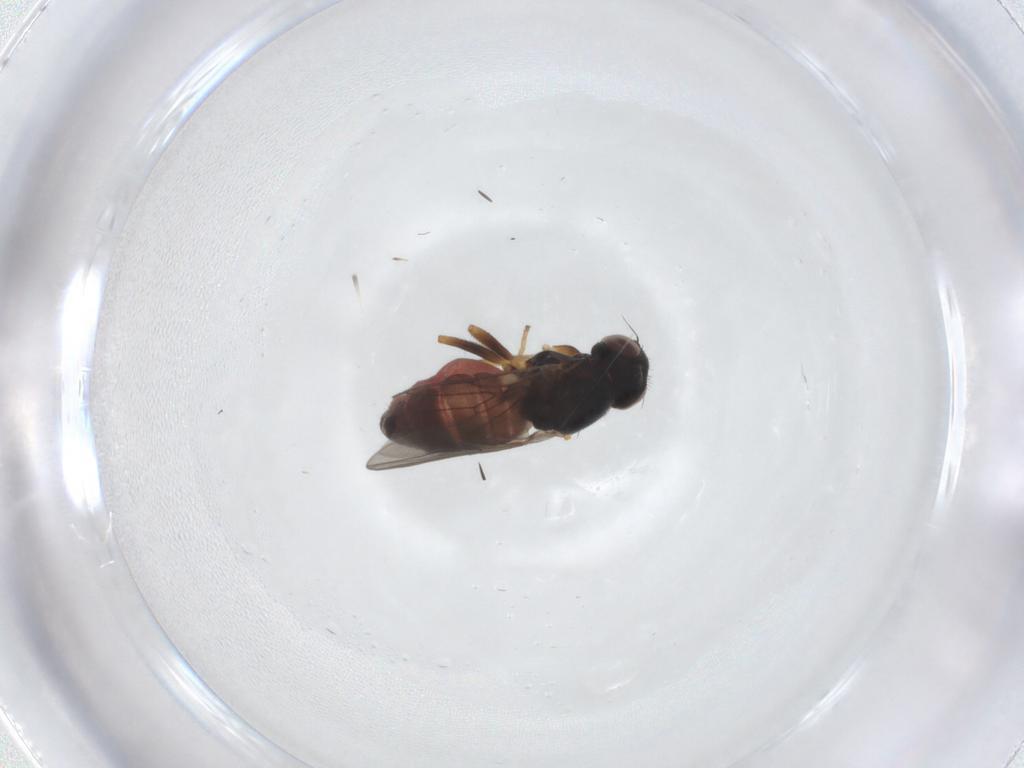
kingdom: Animalia
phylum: Arthropoda
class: Insecta
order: Diptera
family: Chloropidae
